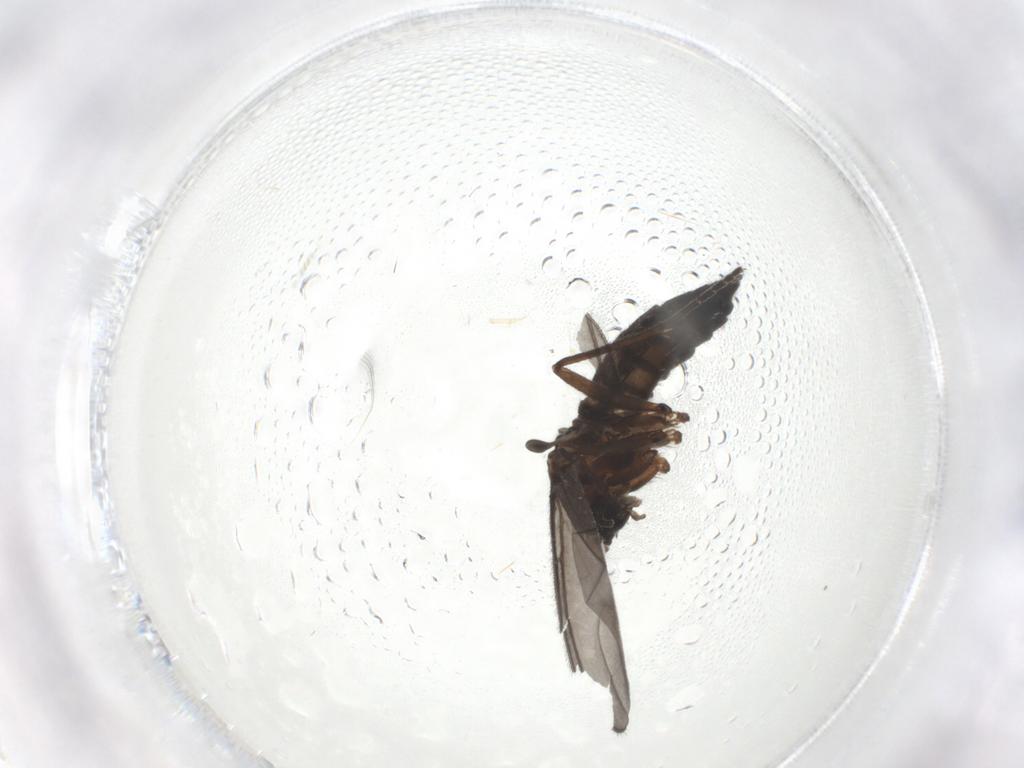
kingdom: Animalia
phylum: Arthropoda
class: Insecta
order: Diptera
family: Sciaridae
